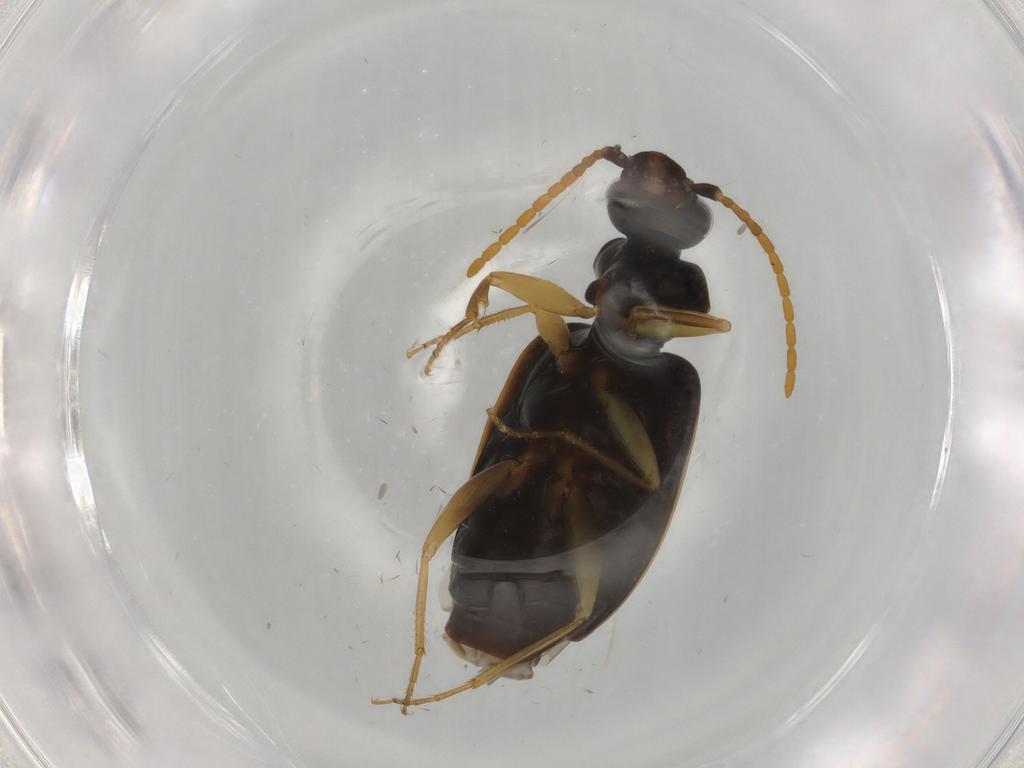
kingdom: Animalia
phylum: Arthropoda
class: Insecta
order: Coleoptera
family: Carabidae
